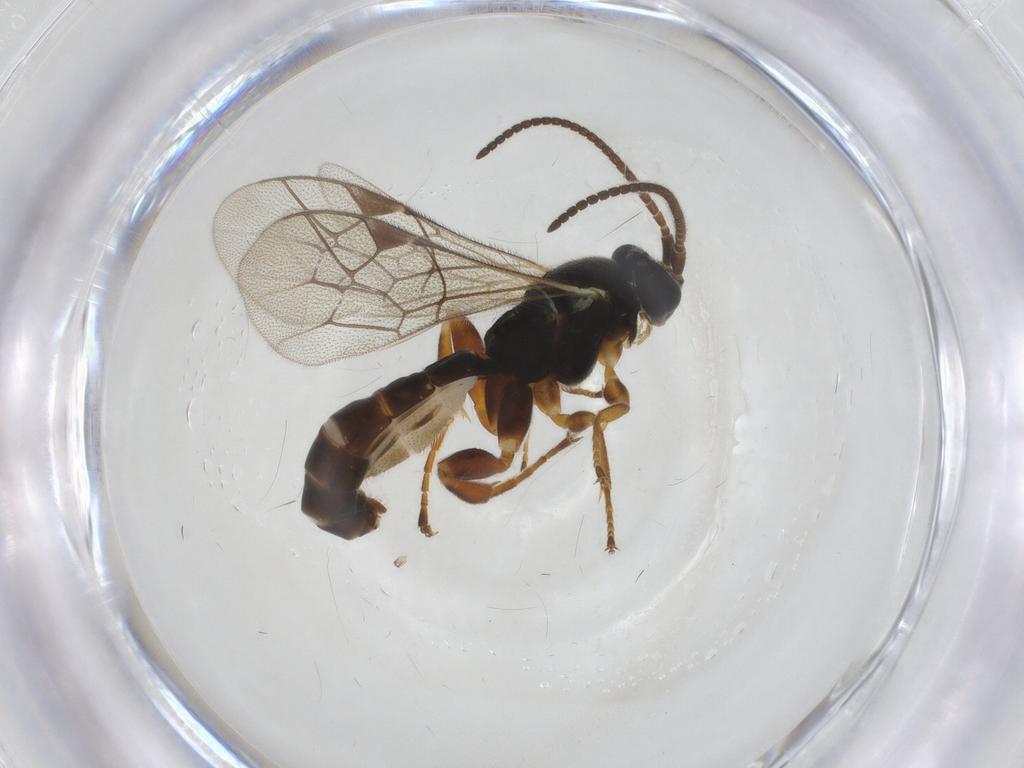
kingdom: Animalia
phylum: Arthropoda
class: Insecta
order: Hymenoptera
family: Ichneumonidae
